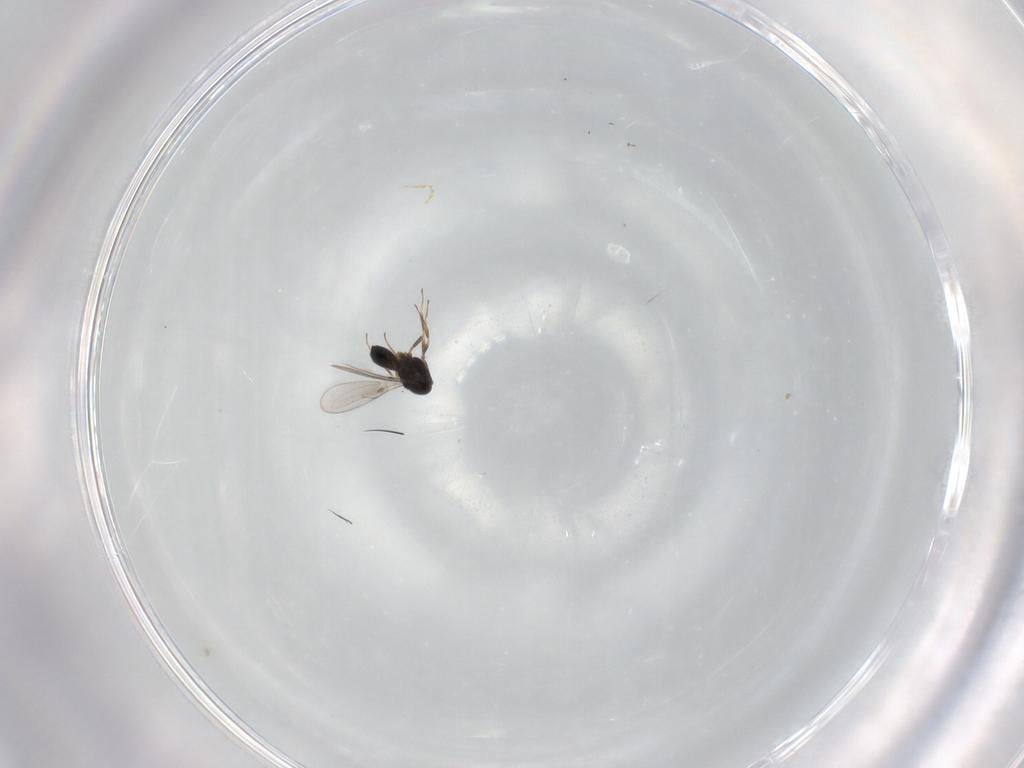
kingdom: Animalia
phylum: Arthropoda
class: Insecta
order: Hymenoptera
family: Scelionidae
